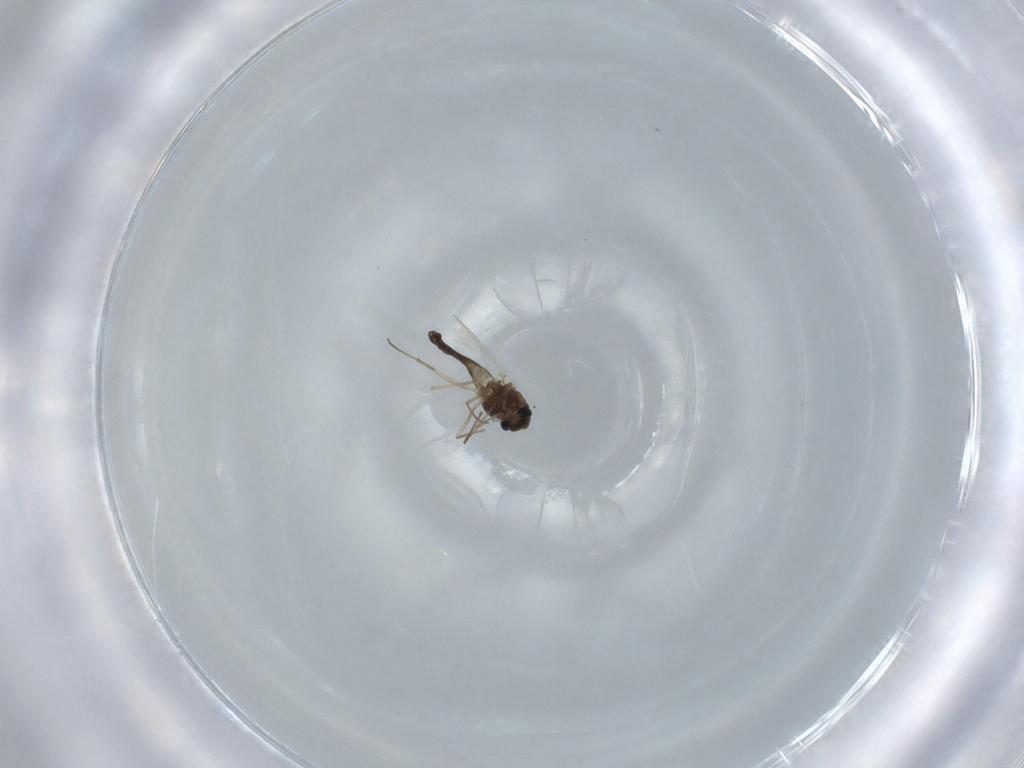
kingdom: Animalia
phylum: Arthropoda
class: Insecta
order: Diptera
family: Chironomidae
